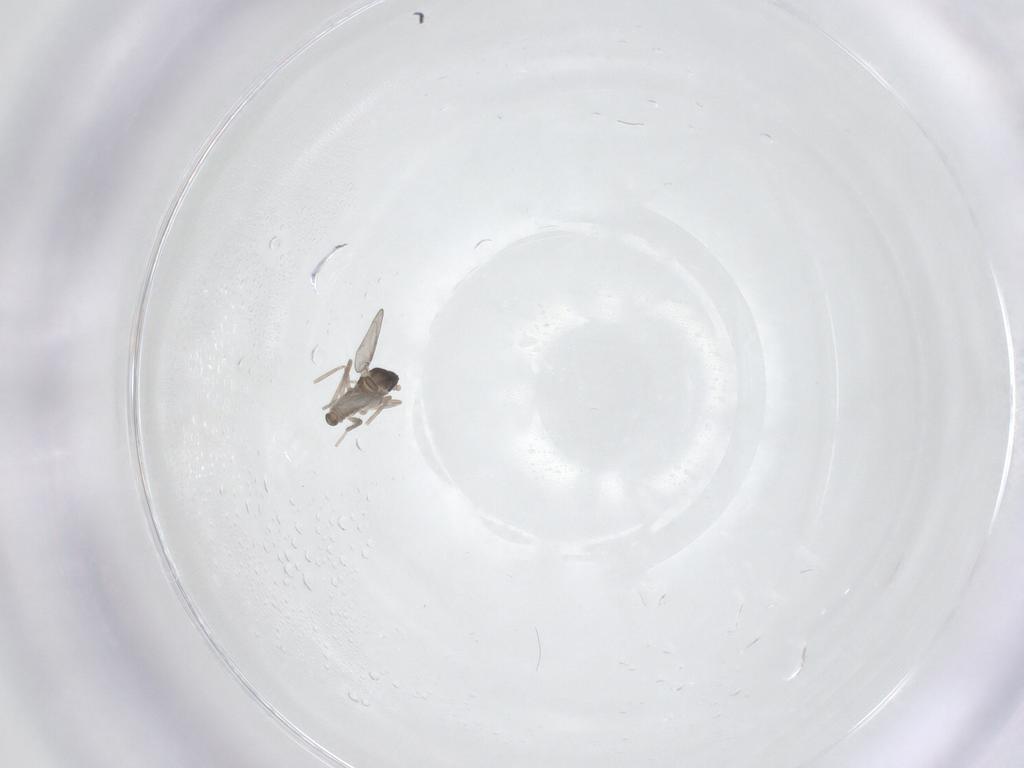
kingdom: Animalia
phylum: Arthropoda
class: Insecta
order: Diptera
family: Cecidomyiidae
